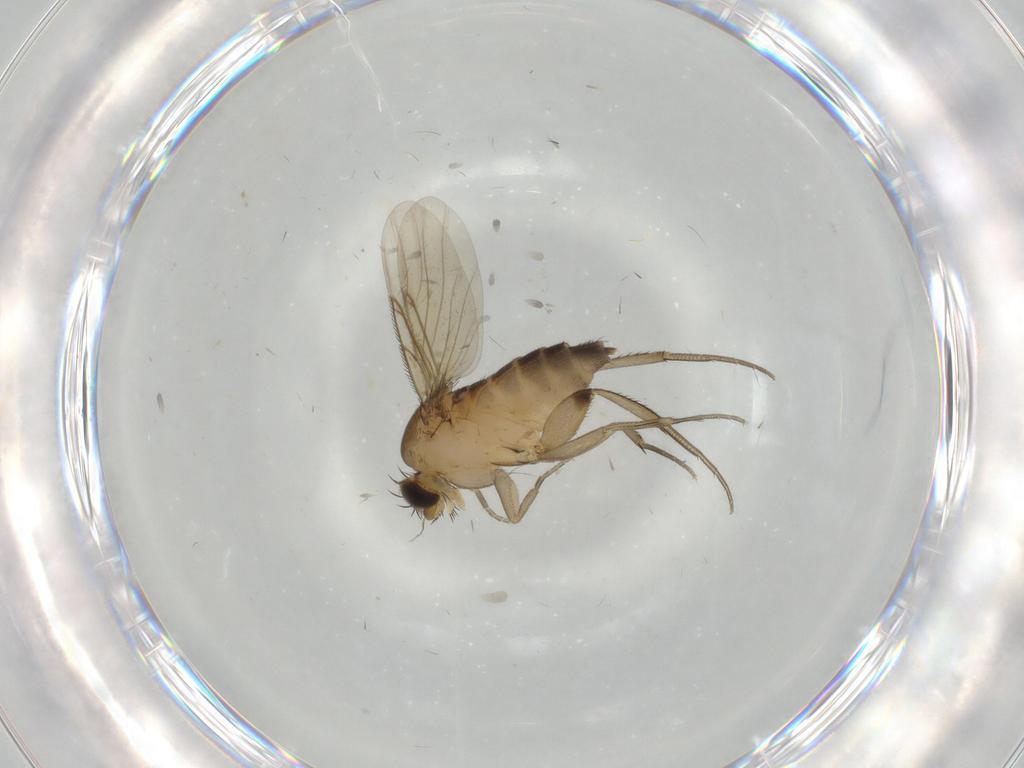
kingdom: Animalia
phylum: Arthropoda
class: Insecta
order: Diptera
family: Phoridae
